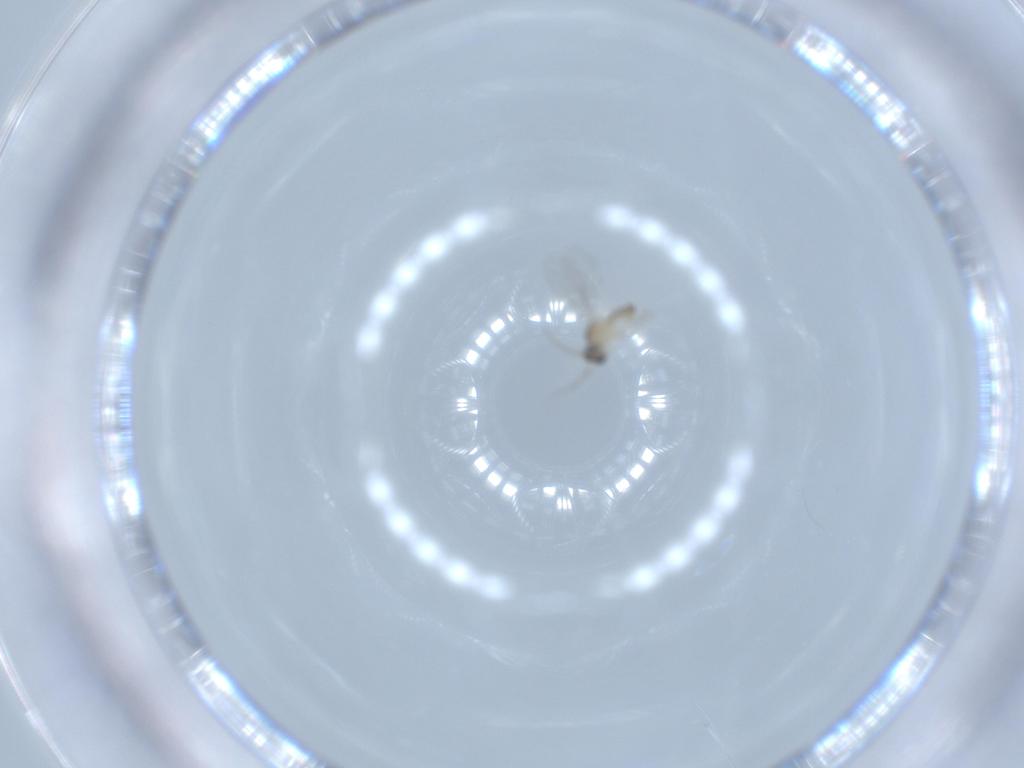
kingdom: Animalia
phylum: Arthropoda
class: Insecta
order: Diptera
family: Cecidomyiidae
